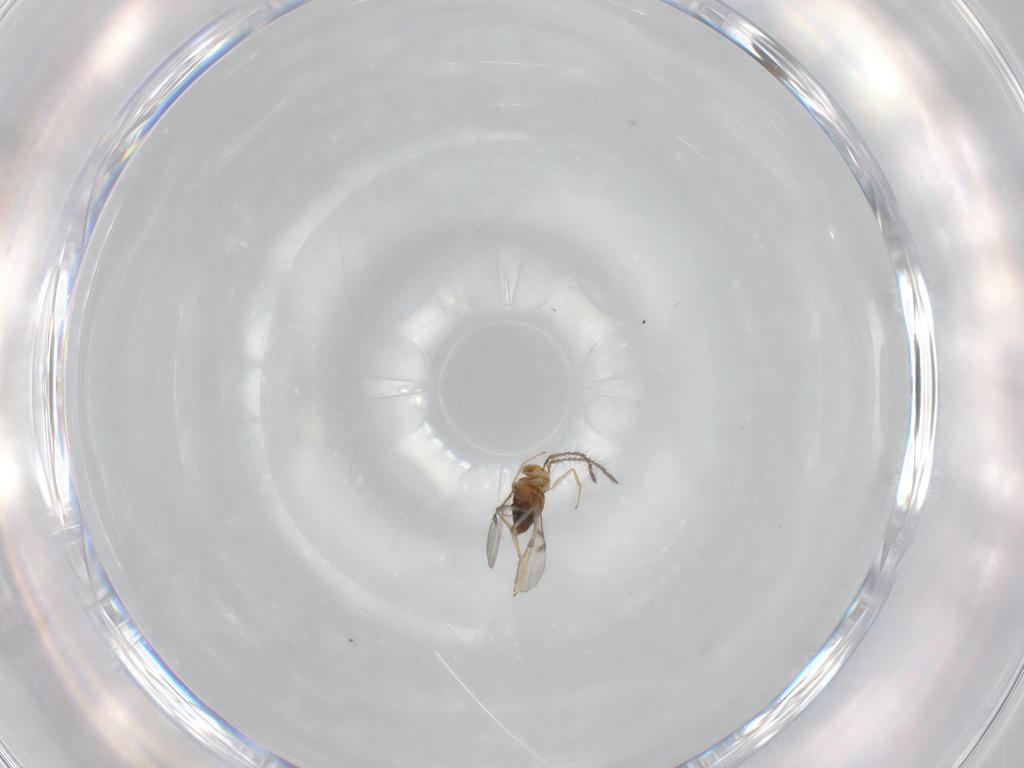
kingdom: Animalia
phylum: Arthropoda
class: Insecta
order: Hymenoptera
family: Encyrtidae
